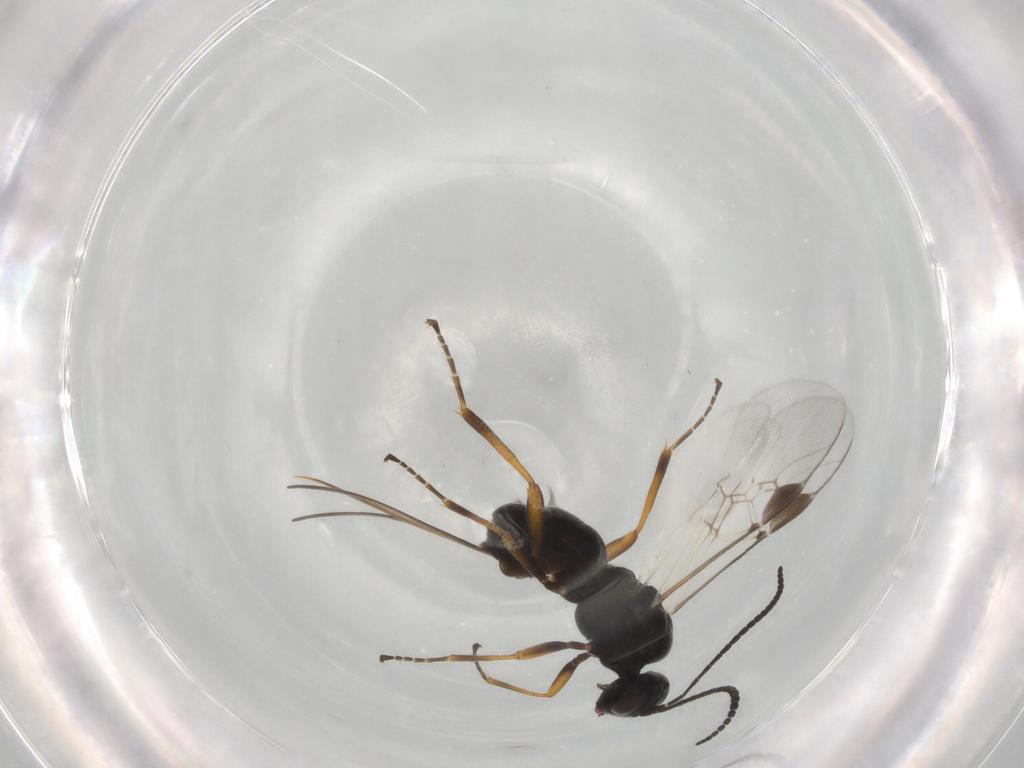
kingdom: Animalia
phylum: Arthropoda
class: Insecta
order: Hymenoptera
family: Braconidae
